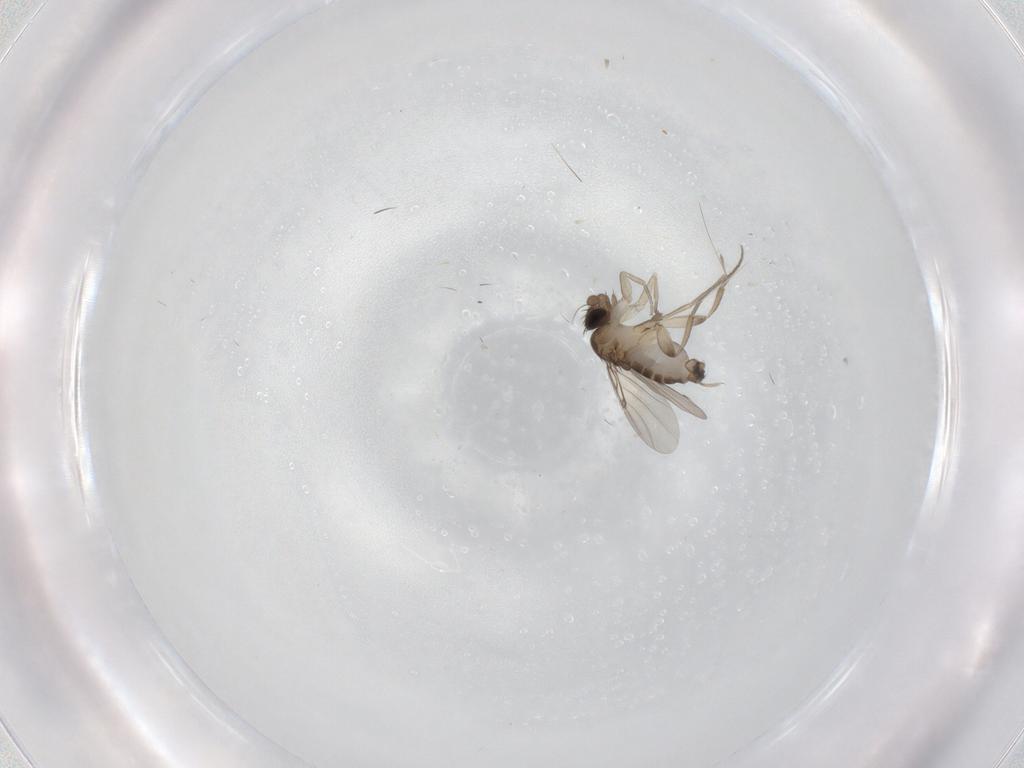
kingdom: Animalia
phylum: Arthropoda
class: Insecta
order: Diptera
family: Phoridae
